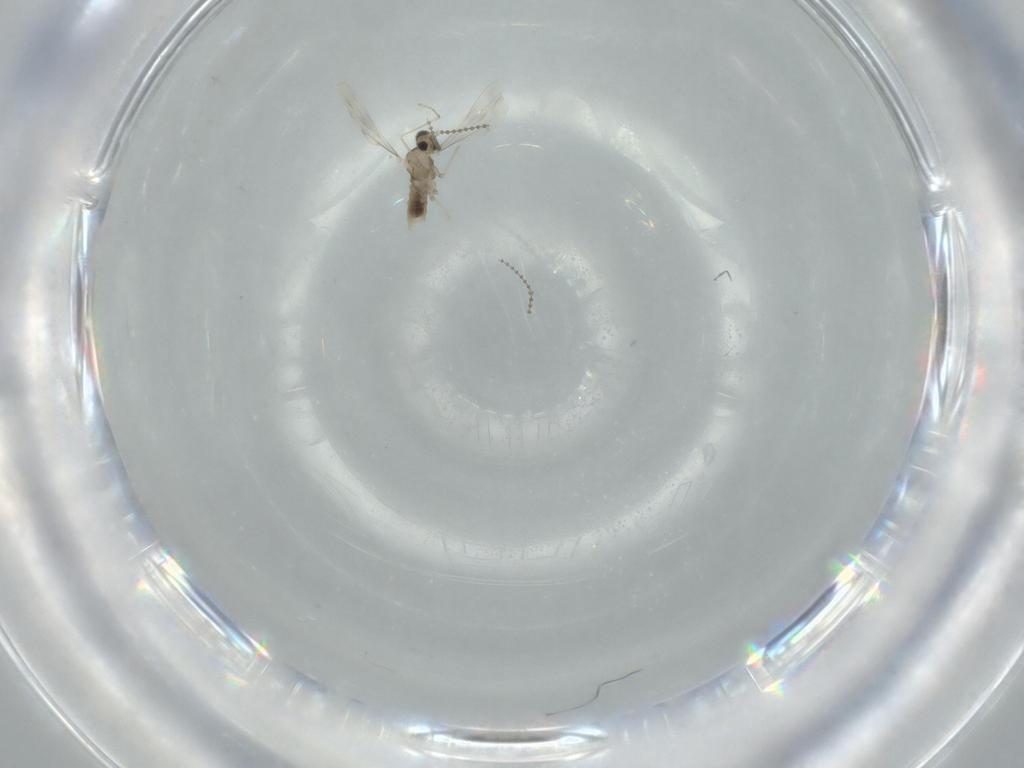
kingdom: Animalia
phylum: Arthropoda
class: Insecta
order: Diptera
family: Cecidomyiidae
